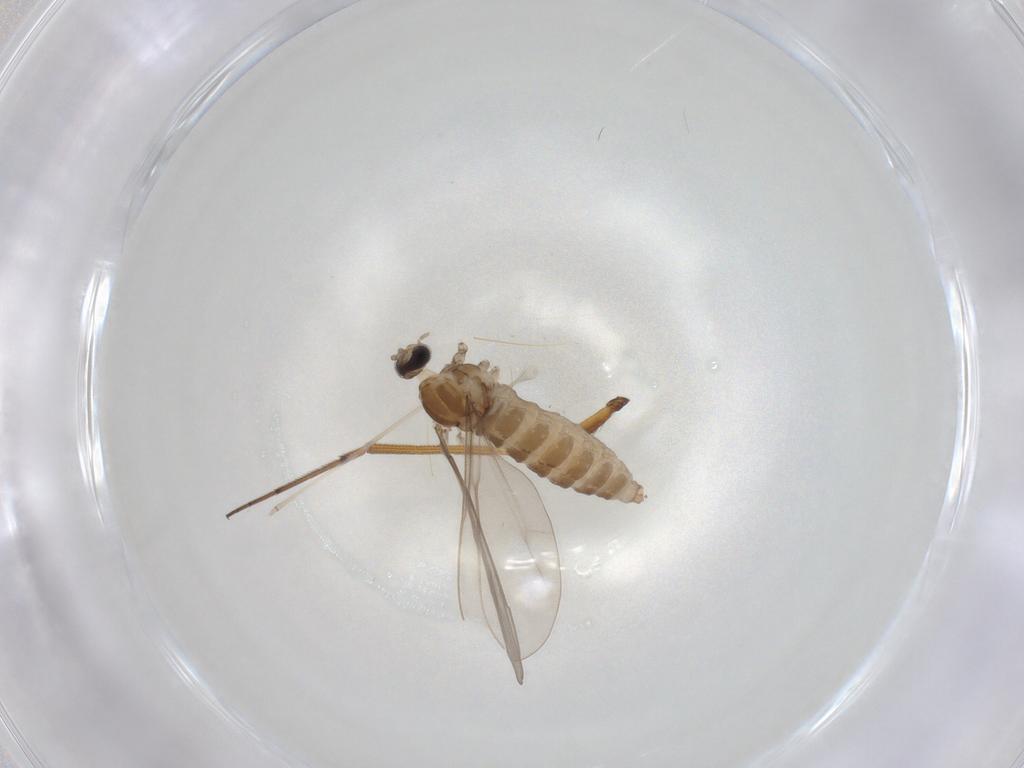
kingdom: Animalia
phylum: Arthropoda
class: Insecta
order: Diptera
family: Dolichopodidae
